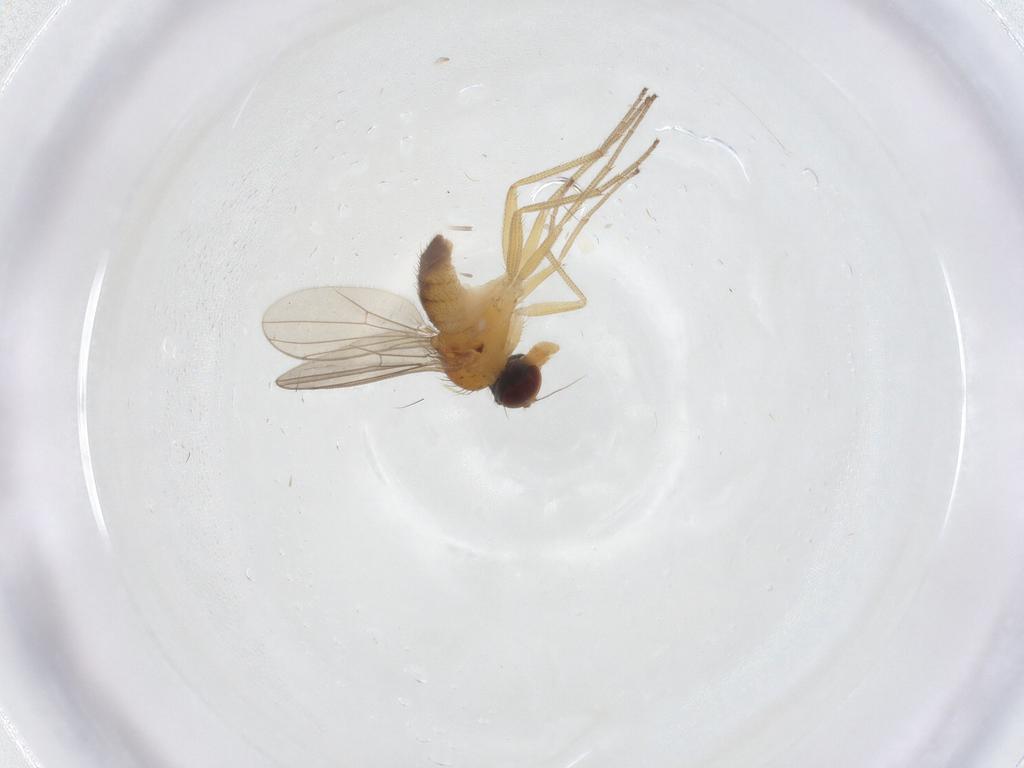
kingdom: Animalia
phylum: Arthropoda
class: Insecta
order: Diptera
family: Dolichopodidae
